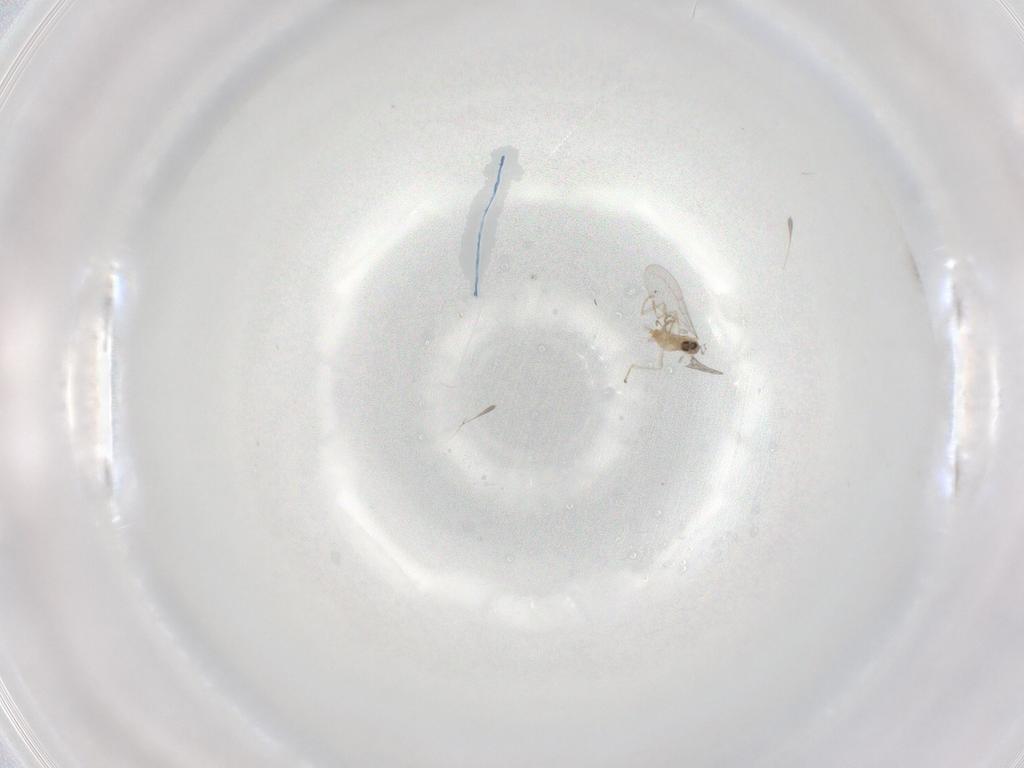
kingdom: Animalia
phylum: Arthropoda
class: Insecta
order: Diptera
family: Cecidomyiidae
